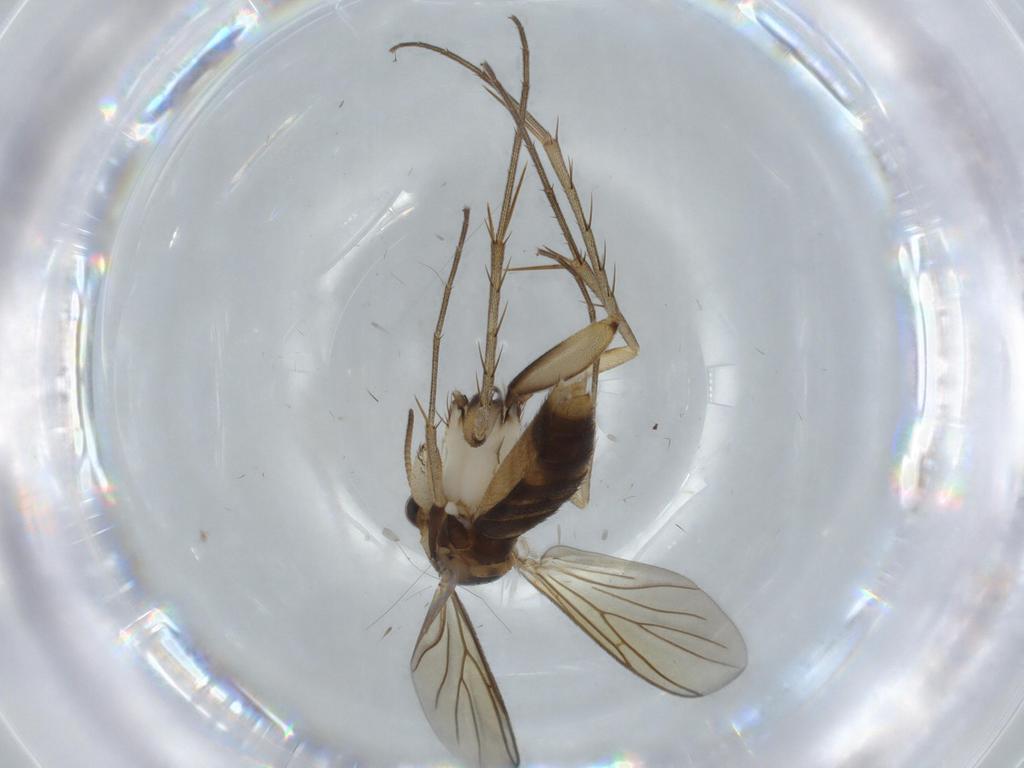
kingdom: Animalia
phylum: Arthropoda
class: Insecta
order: Diptera
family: Mycetophilidae
